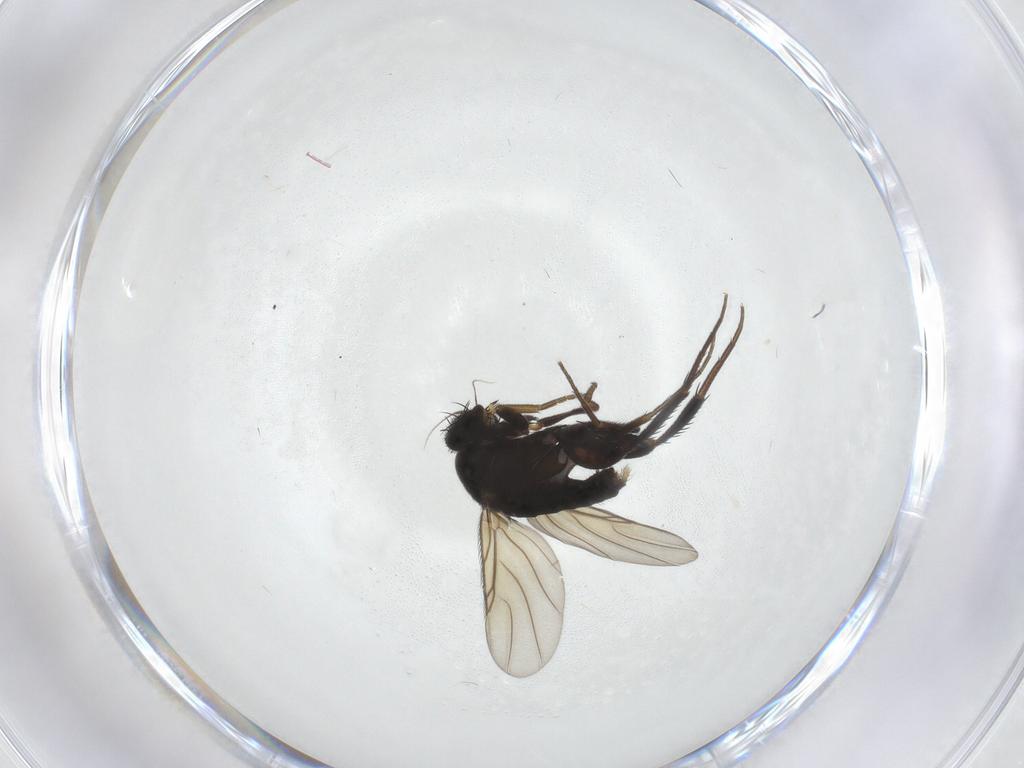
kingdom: Animalia
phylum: Arthropoda
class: Insecta
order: Diptera
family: Phoridae
